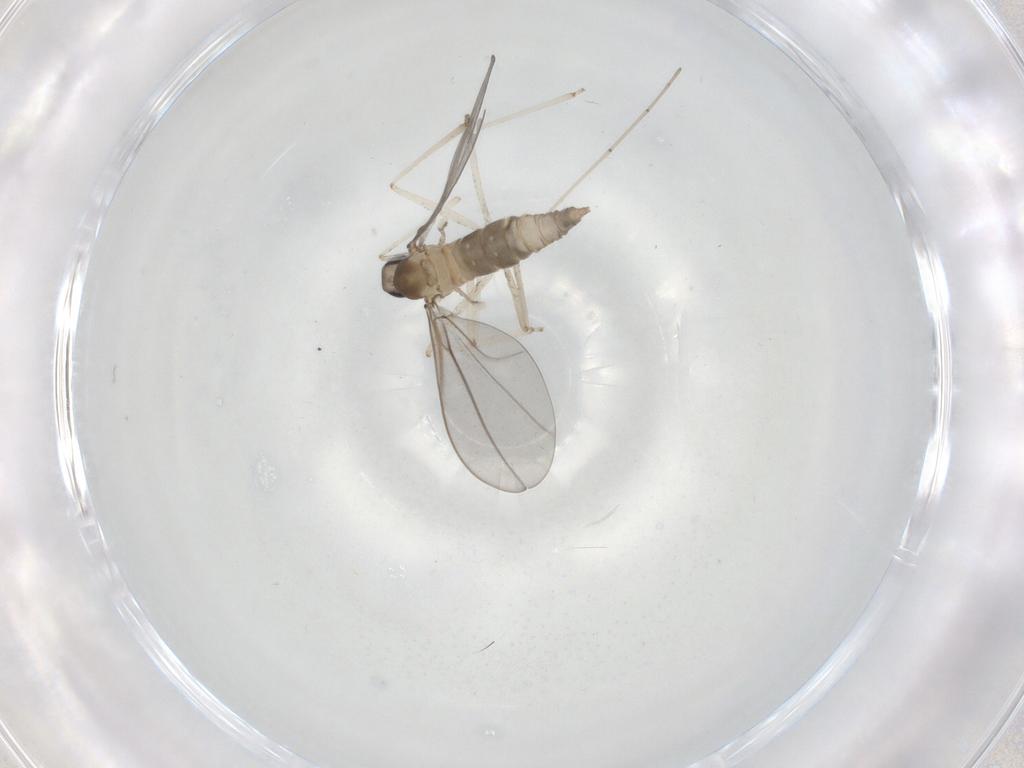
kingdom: Animalia
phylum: Arthropoda
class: Insecta
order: Diptera
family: Cecidomyiidae
